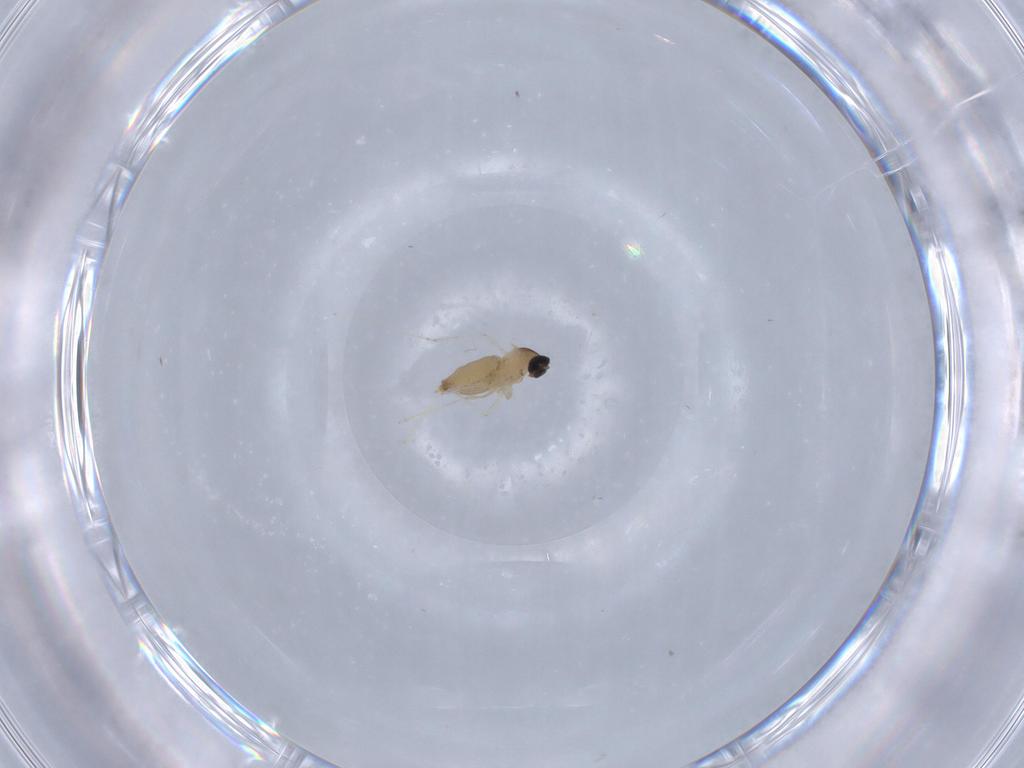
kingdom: Animalia
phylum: Arthropoda
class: Insecta
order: Diptera
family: Cecidomyiidae
